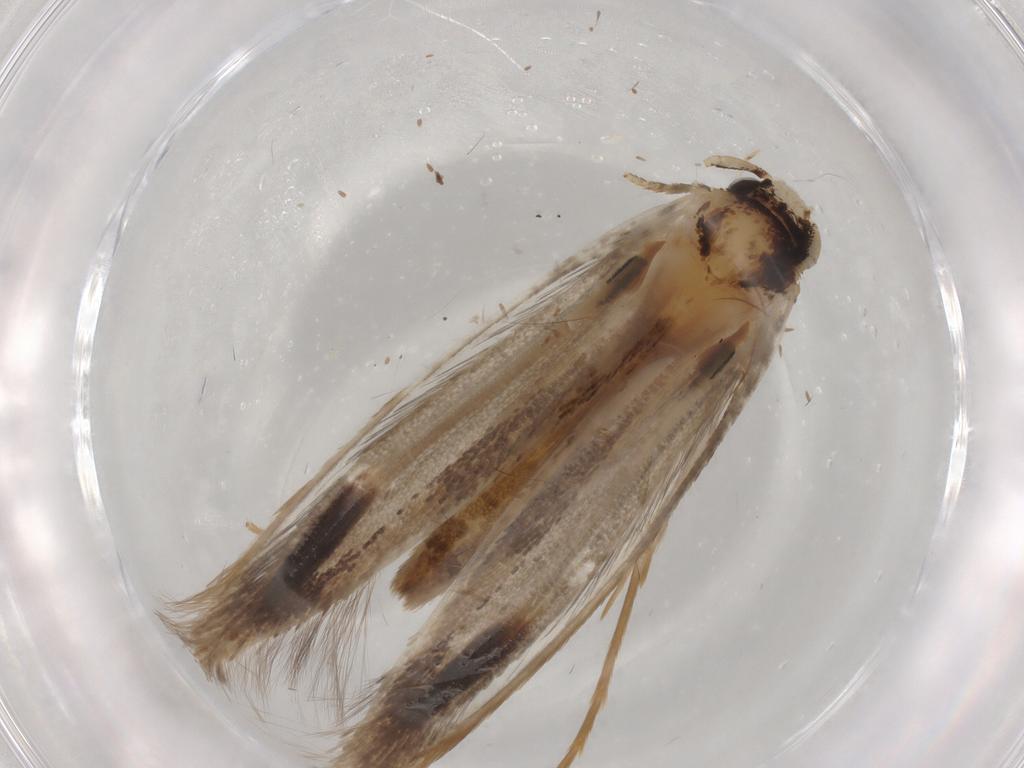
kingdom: Animalia
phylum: Arthropoda
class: Insecta
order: Lepidoptera
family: Tineidae
